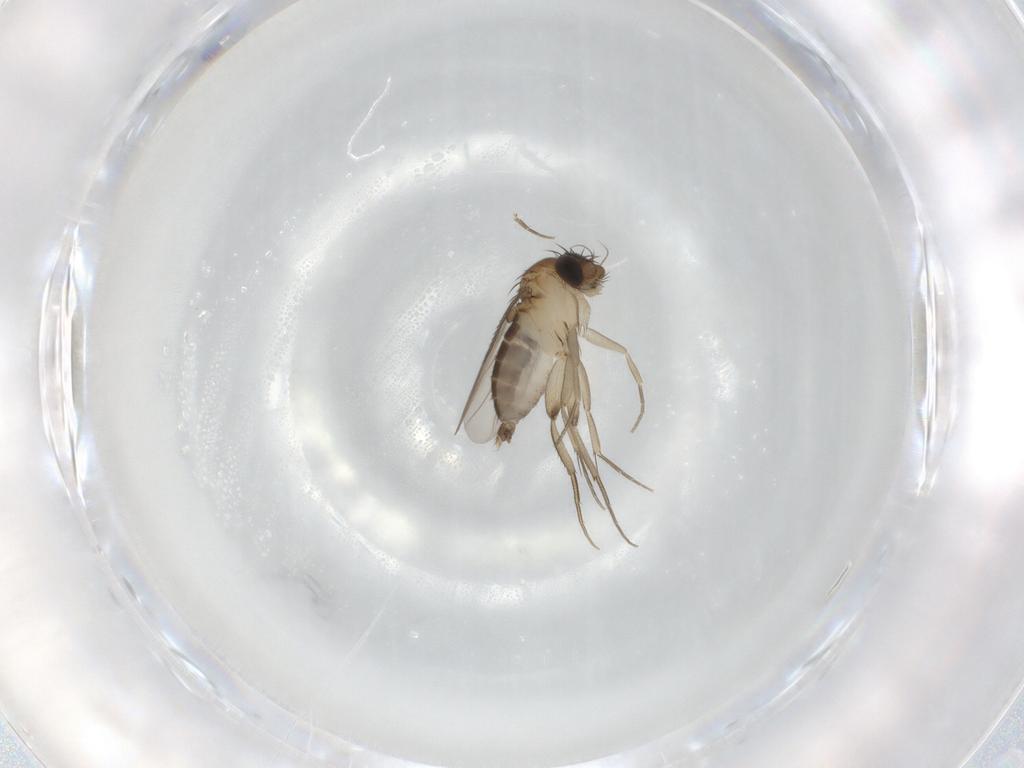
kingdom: Animalia
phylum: Arthropoda
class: Insecta
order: Diptera
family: Phoridae
